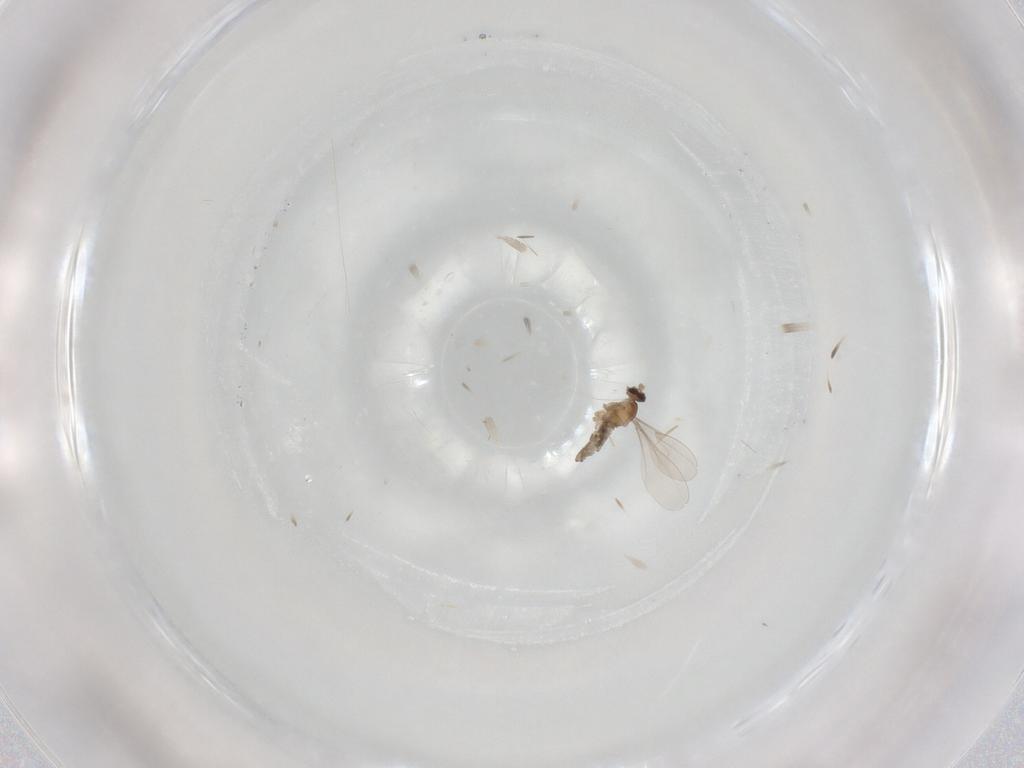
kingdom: Animalia
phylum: Arthropoda
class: Insecta
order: Diptera
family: Cecidomyiidae
